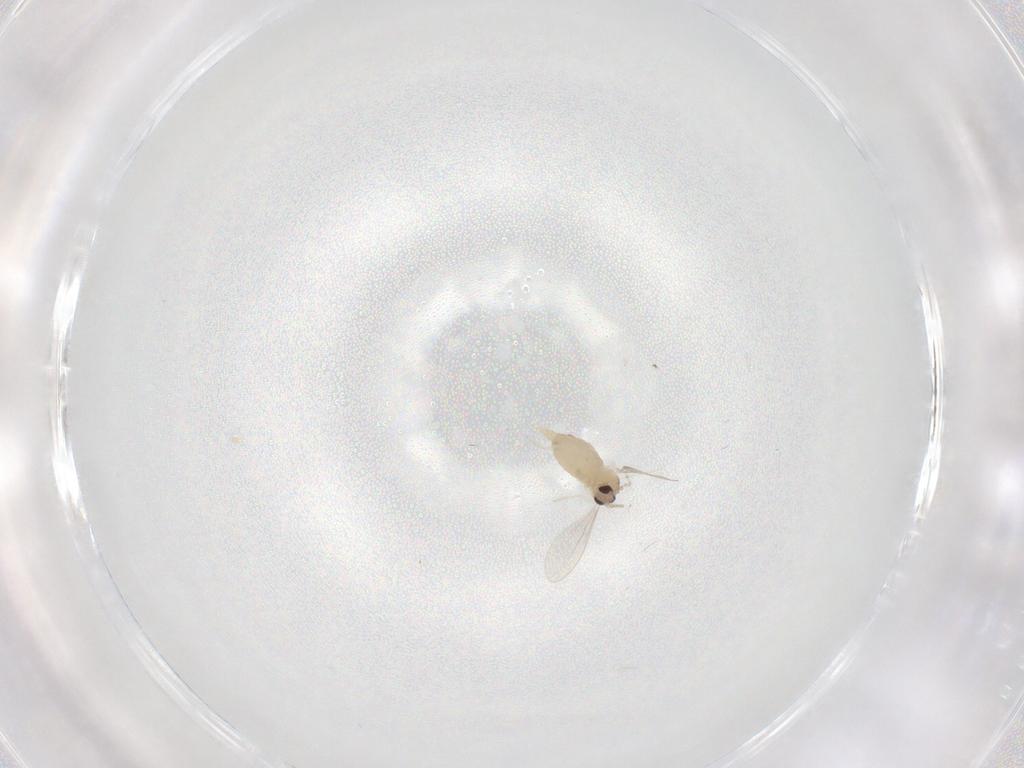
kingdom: Animalia
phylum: Arthropoda
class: Insecta
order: Diptera
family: Cecidomyiidae
